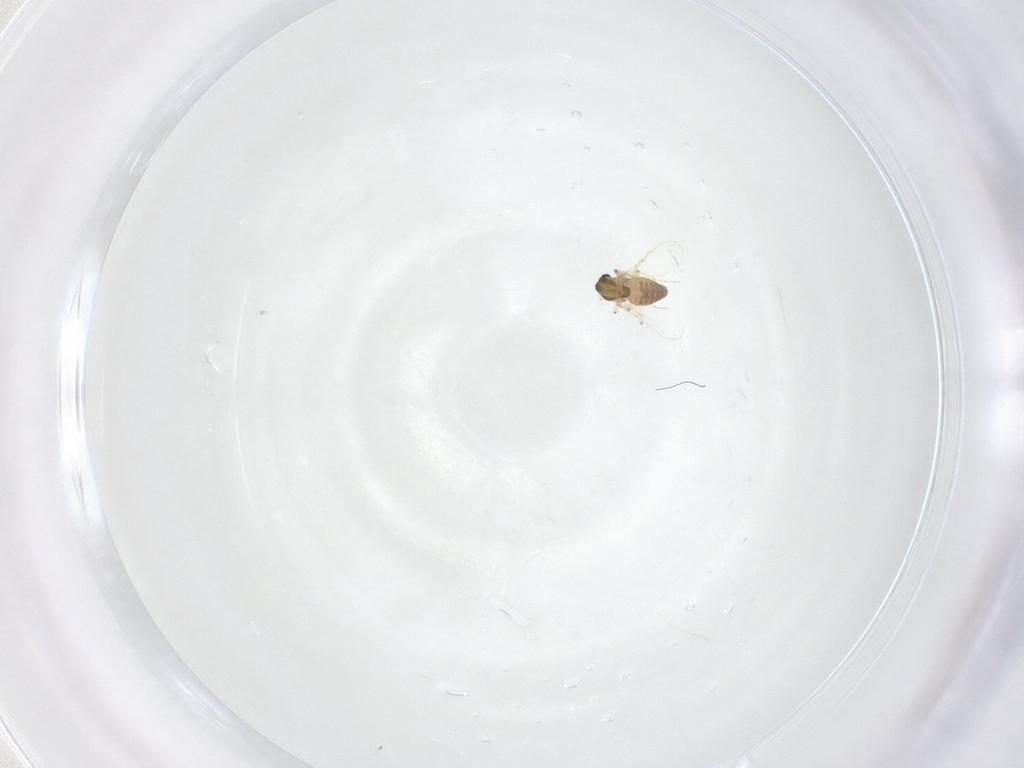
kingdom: Animalia
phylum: Arthropoda
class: Insecta
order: Diptera
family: Chironomidae
